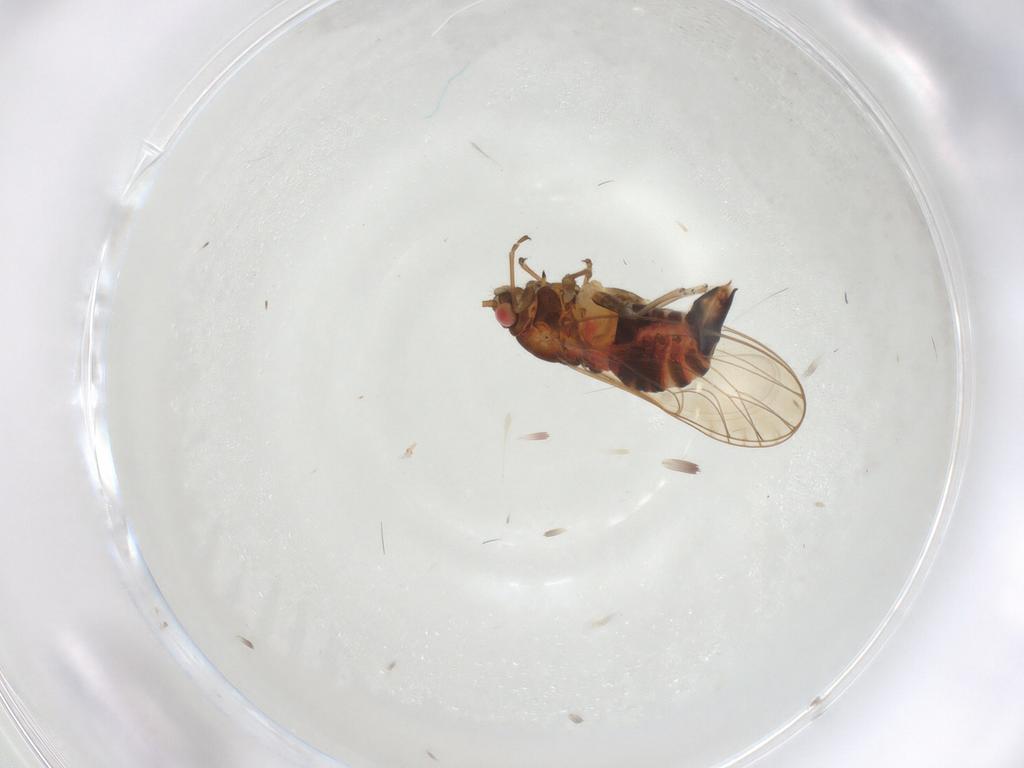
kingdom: Animalia
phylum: Arthropoda
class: Insecta
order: Hemiptera
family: Psyllidae
